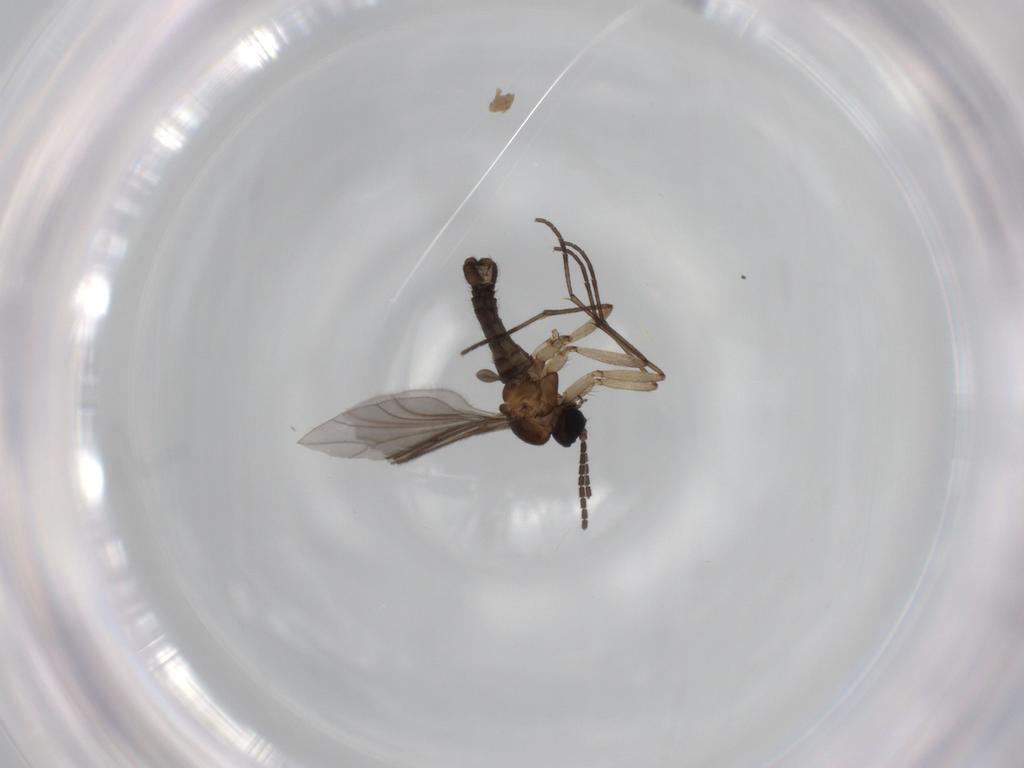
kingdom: Animalia
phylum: Arthropoda
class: Insecta
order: Diptera
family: Sciaridae
